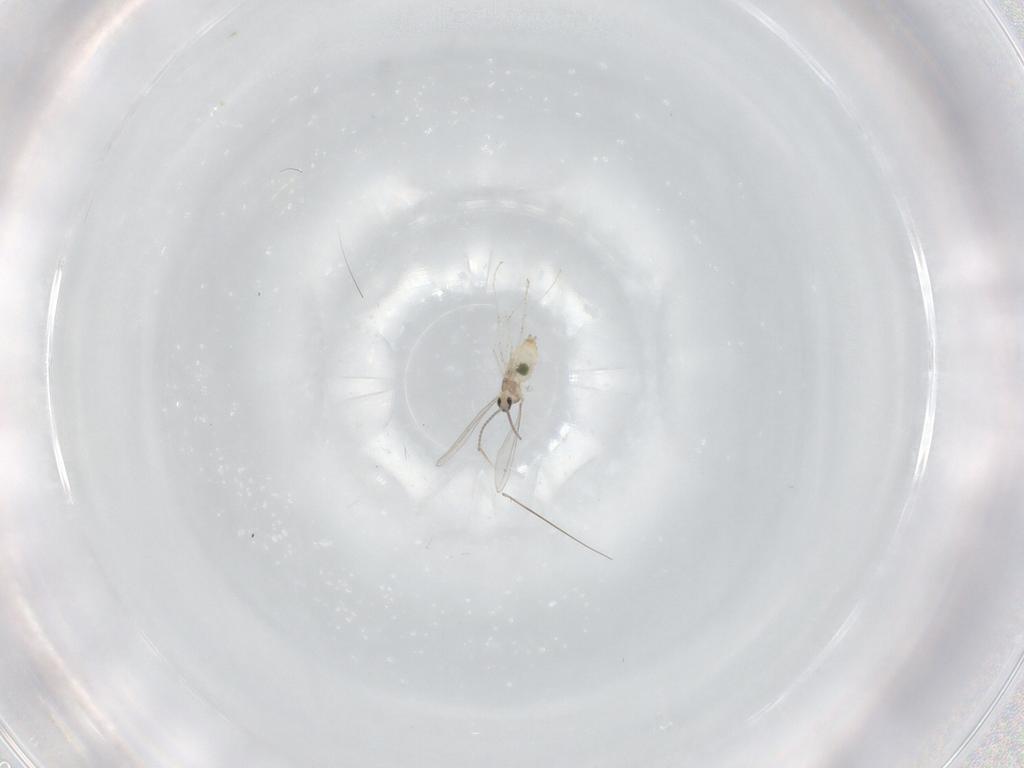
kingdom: Animalia
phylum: Arthropoda
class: Insecta
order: Diptera
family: Cecidomyiidae
